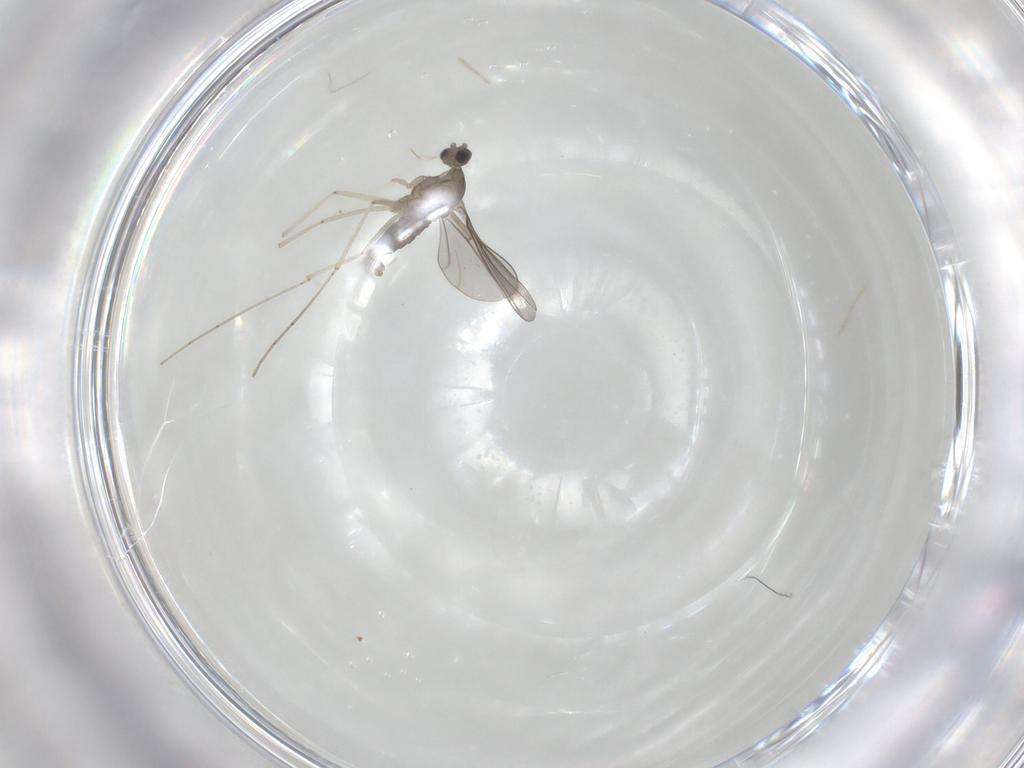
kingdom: Animalia
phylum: Arthropoda
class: Insecta
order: Diptera
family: Cecidomyiidae
